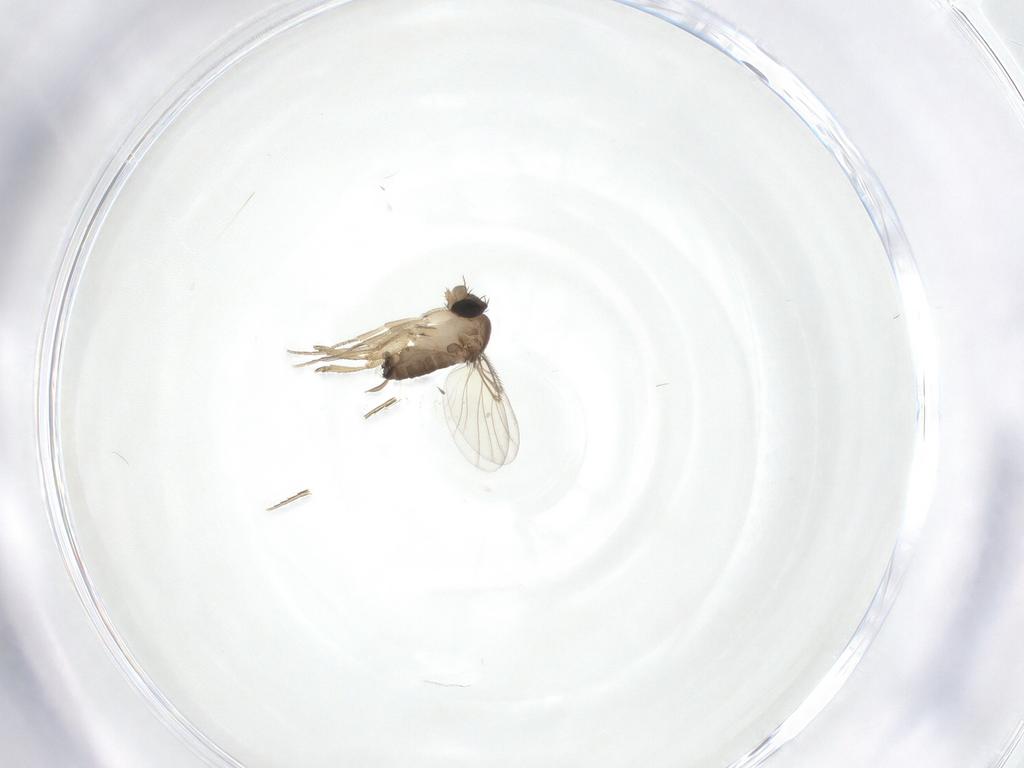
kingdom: Animalia
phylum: Arthropoda
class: Insecta
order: Diptera
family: Phoridae
